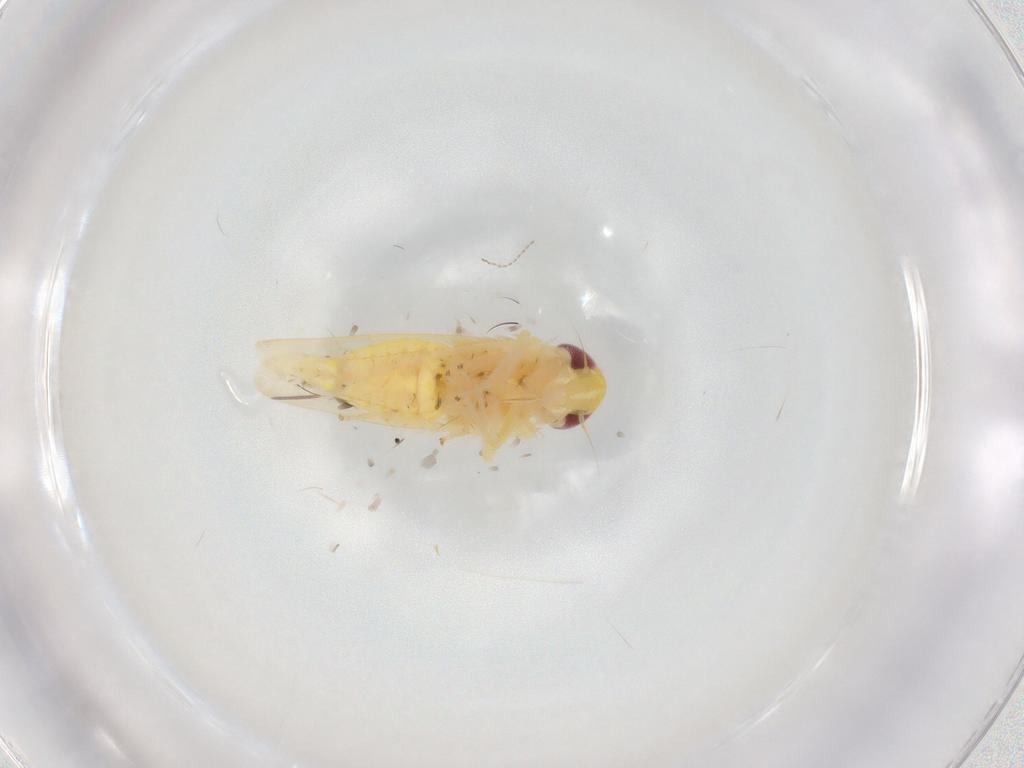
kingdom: Animalia
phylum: Arthropoda
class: Insecta
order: Hemiptera
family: Cicadellidae
